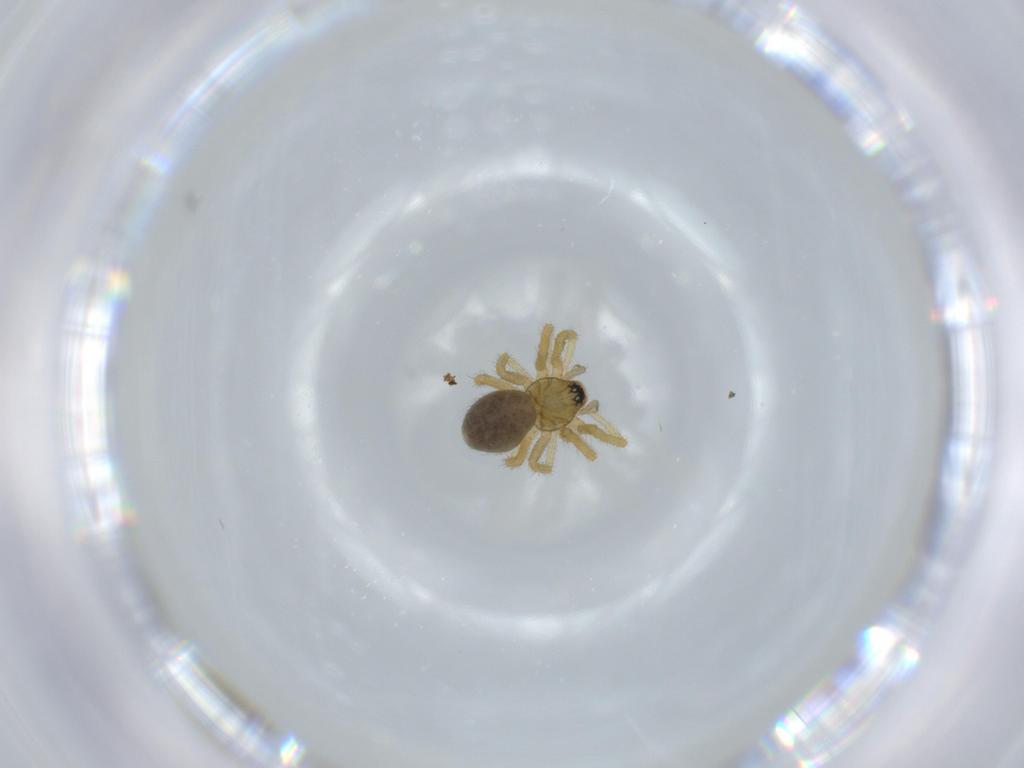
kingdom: Animalia
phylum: Arthropoda
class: Arachnida
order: Araneae
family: Linyphiidae
